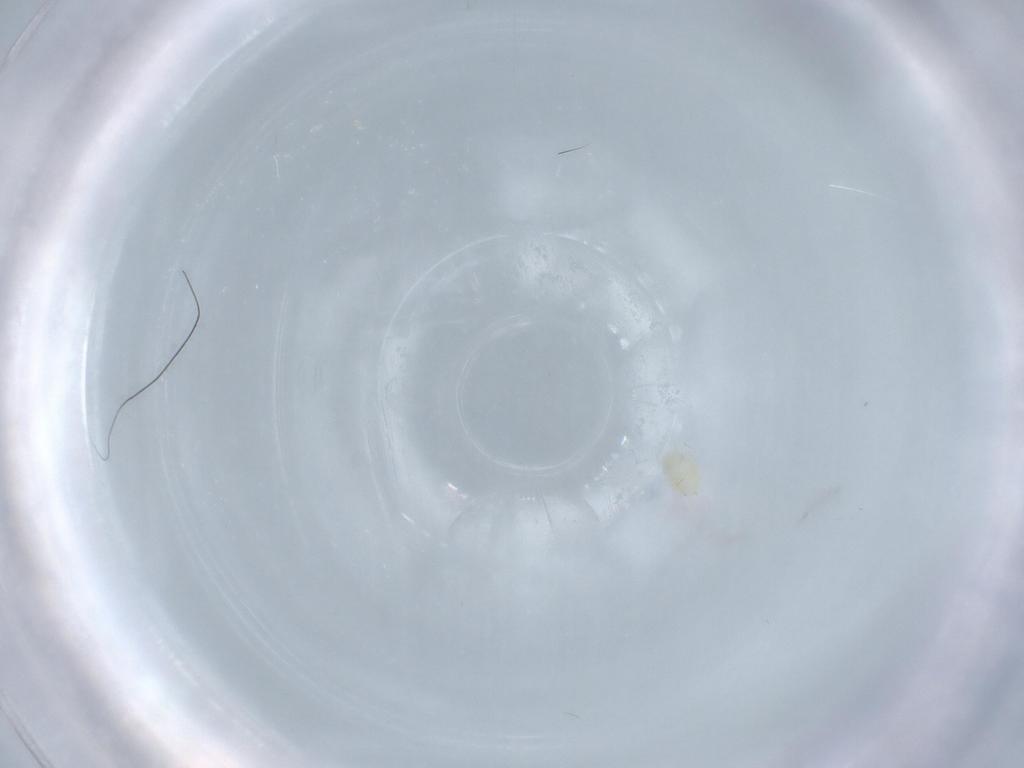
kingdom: Animalia
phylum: Arthropoda
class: Arachnida
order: Trombidiformes
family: Stigmaeidae
